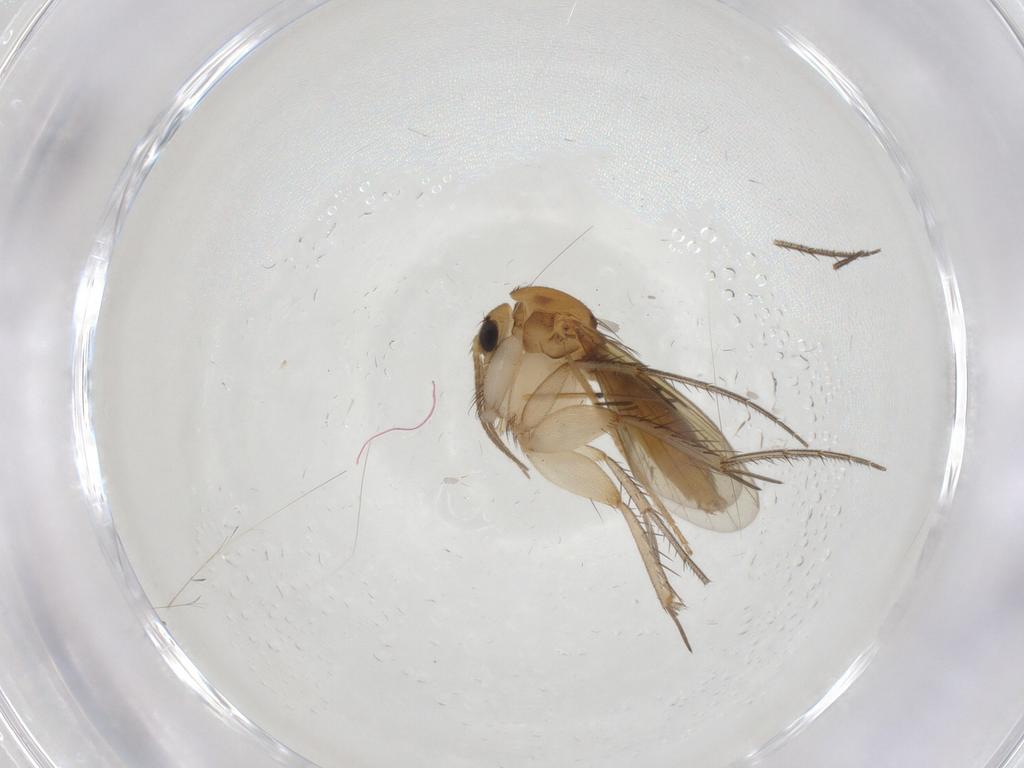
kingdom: Animalia
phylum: Arthropoda
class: Insecta
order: Diptera
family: Mycetophilidae
